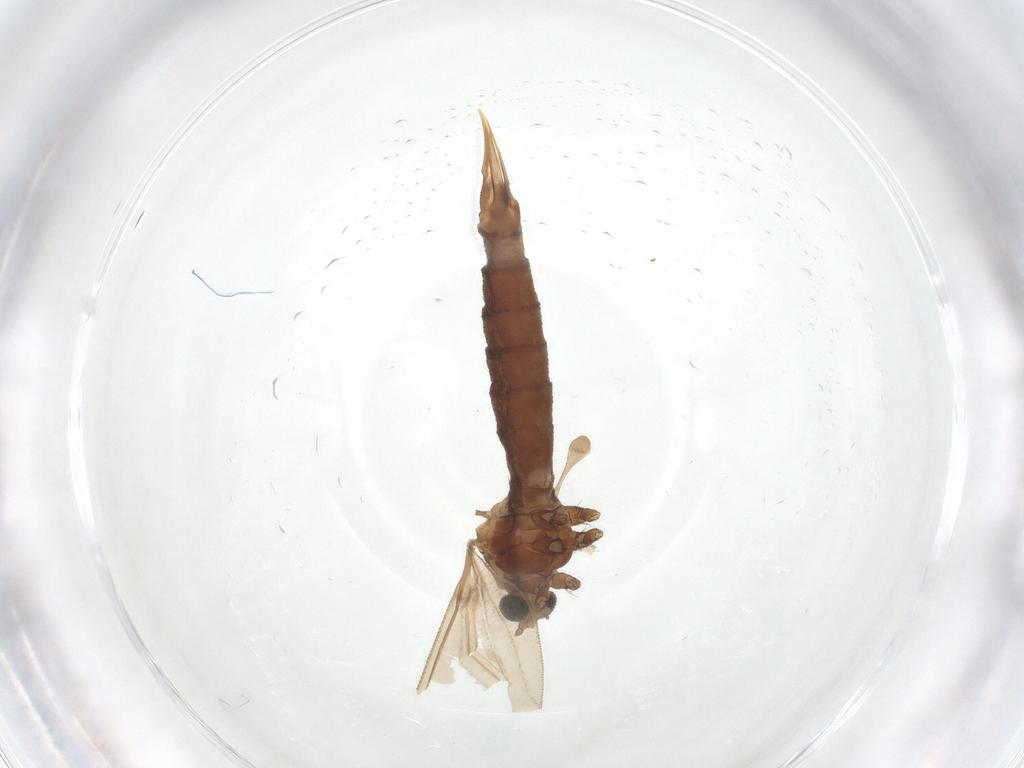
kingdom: Animalia
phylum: Arthropoda
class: Insecta
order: Diptera
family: Limoniidae
